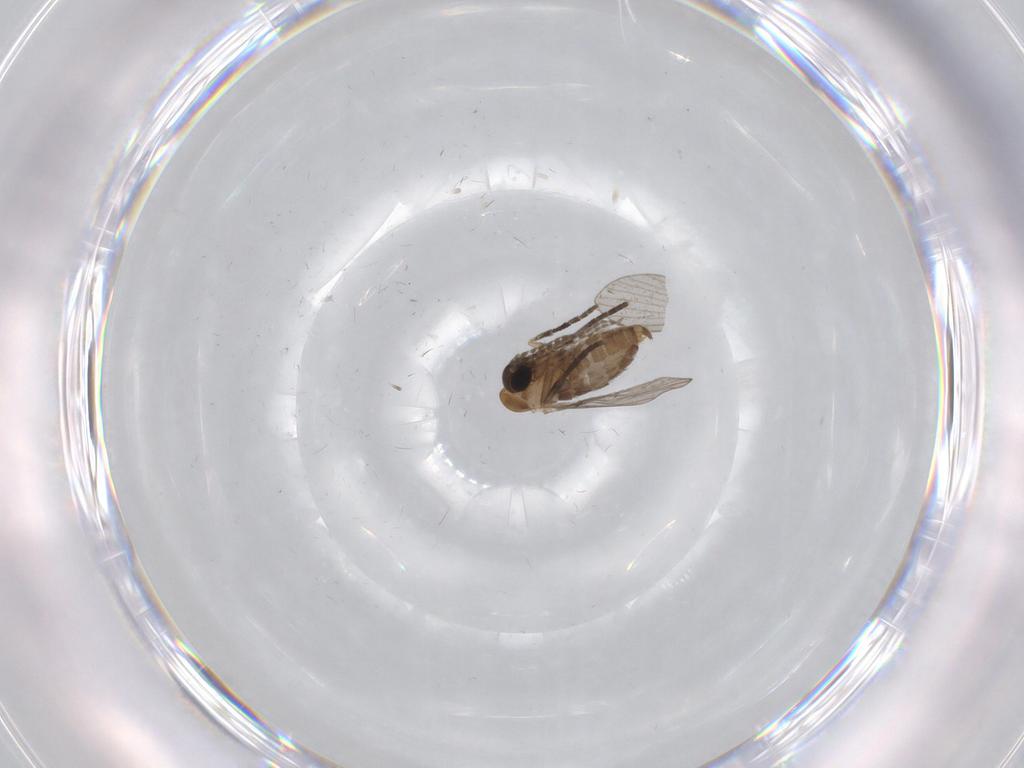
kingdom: Animalia
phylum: Arthropoda
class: Insecta
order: Diptera
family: Psychodidae
